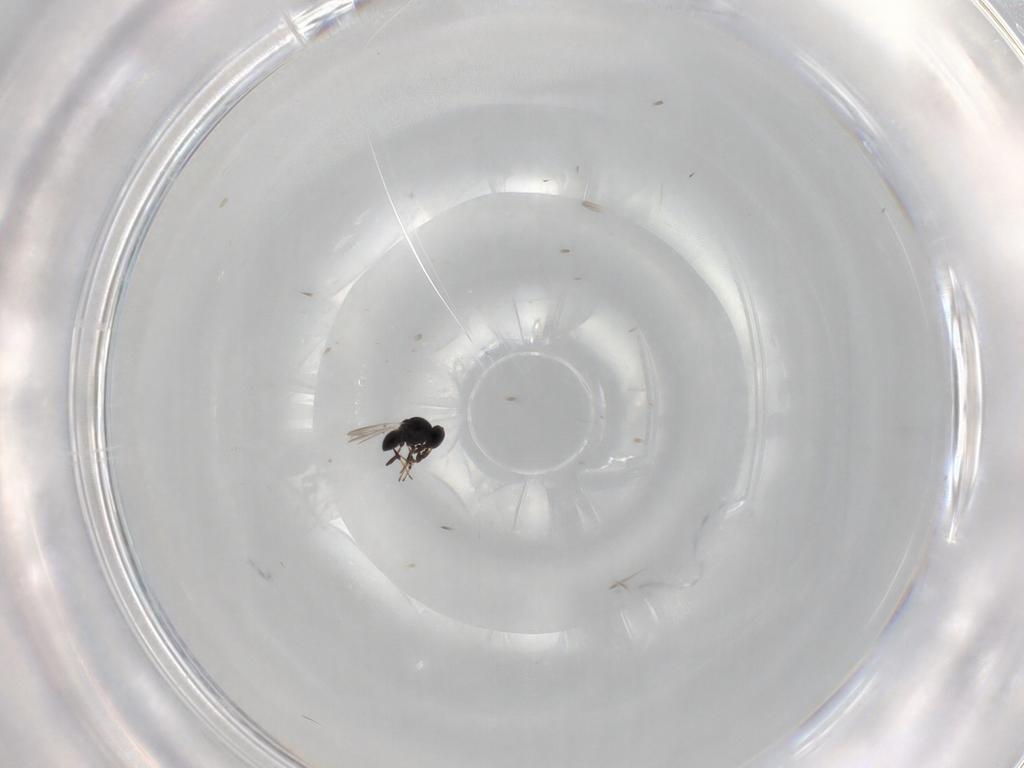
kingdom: Animalia
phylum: Arthropoda
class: Insecta
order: Hymenoptera
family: Platygastridae
